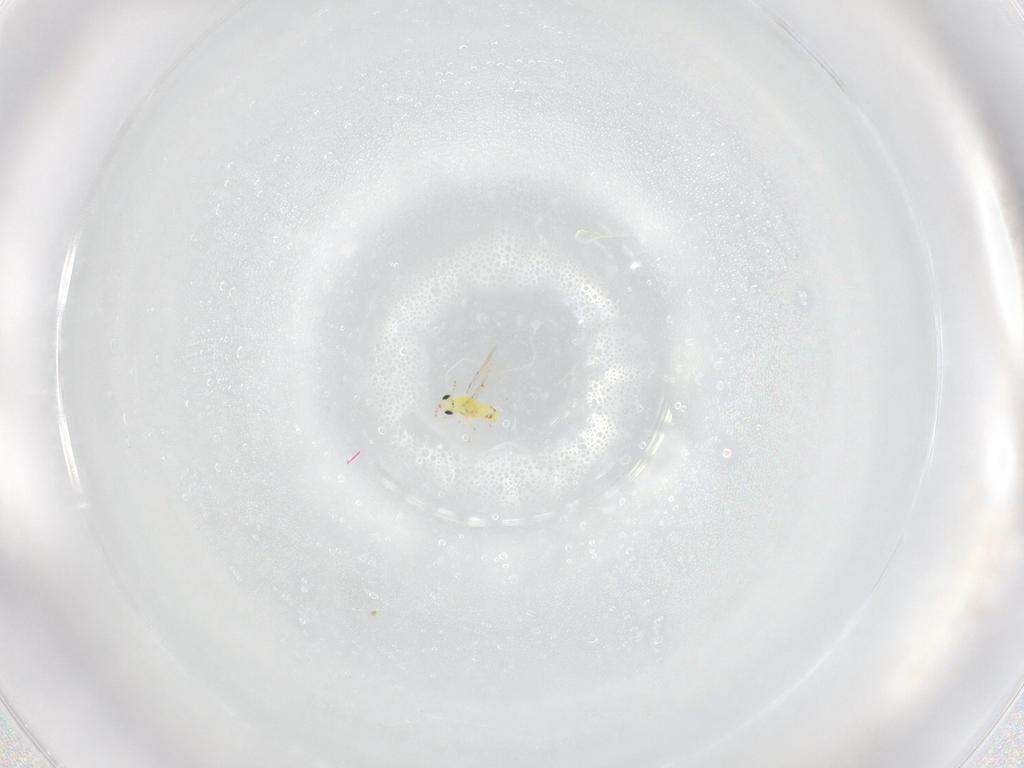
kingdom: Animalia
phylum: Arthropoda
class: Insecta
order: Hymenoptera
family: Trichogrammatidae
